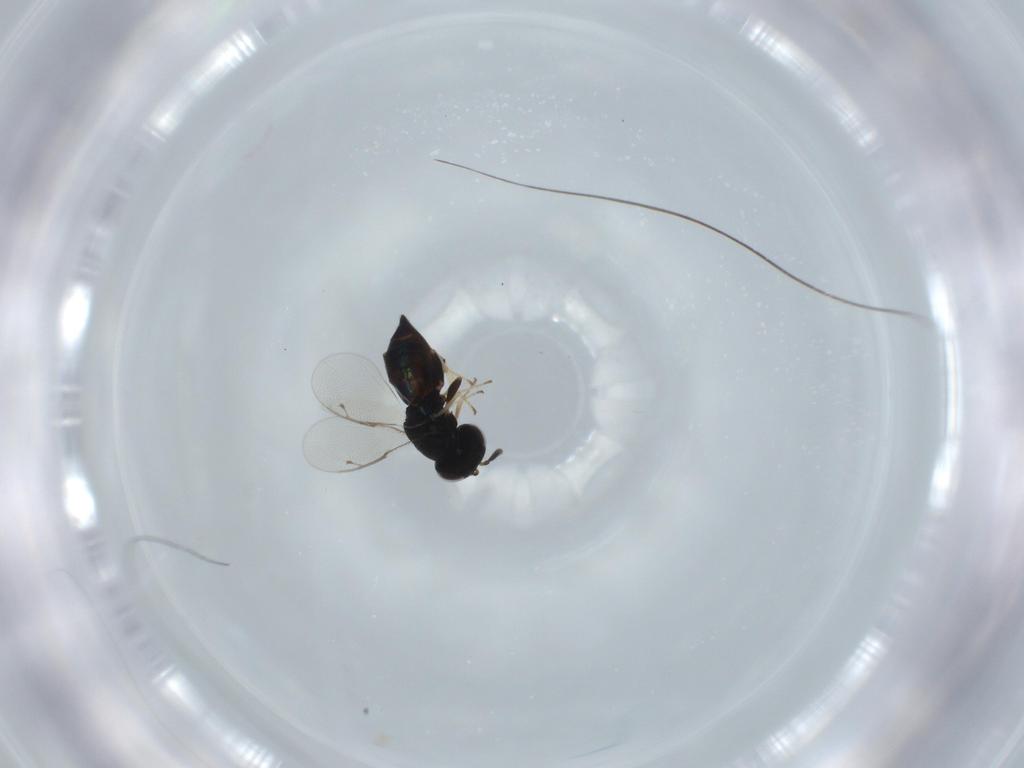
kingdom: Animalia
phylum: Arthropoda
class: Insecta
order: Hymenoptera
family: Pteromalidae
